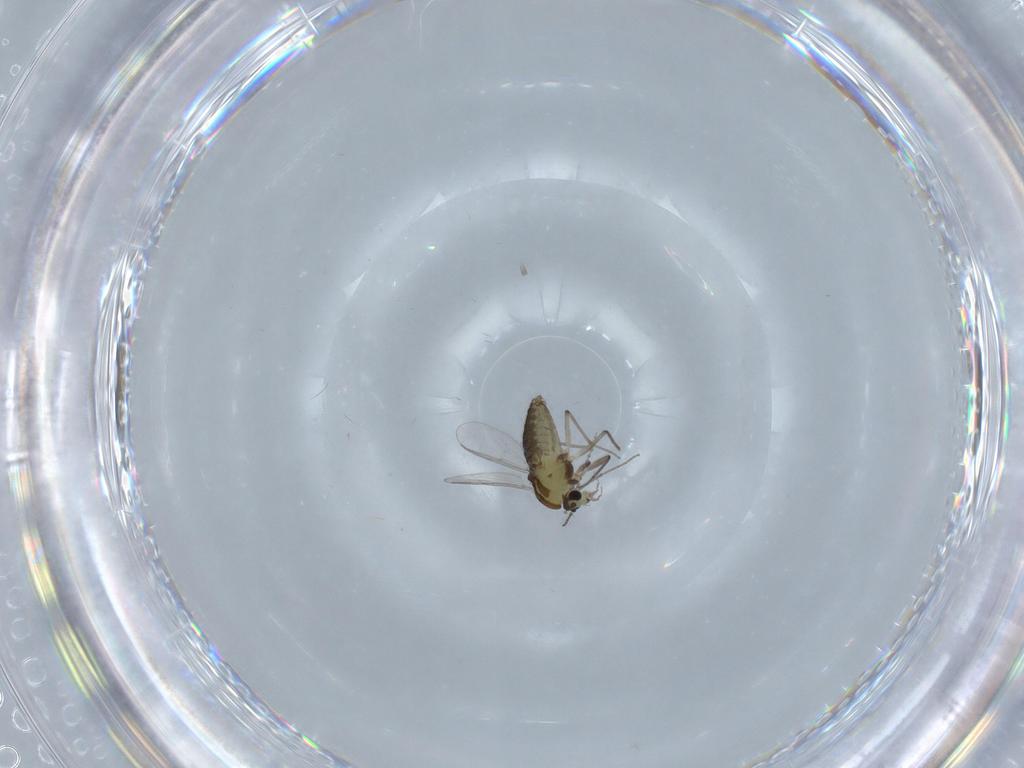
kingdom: Animalia
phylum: Arthropoda
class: Insecta
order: Diptera
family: Chironomidae
